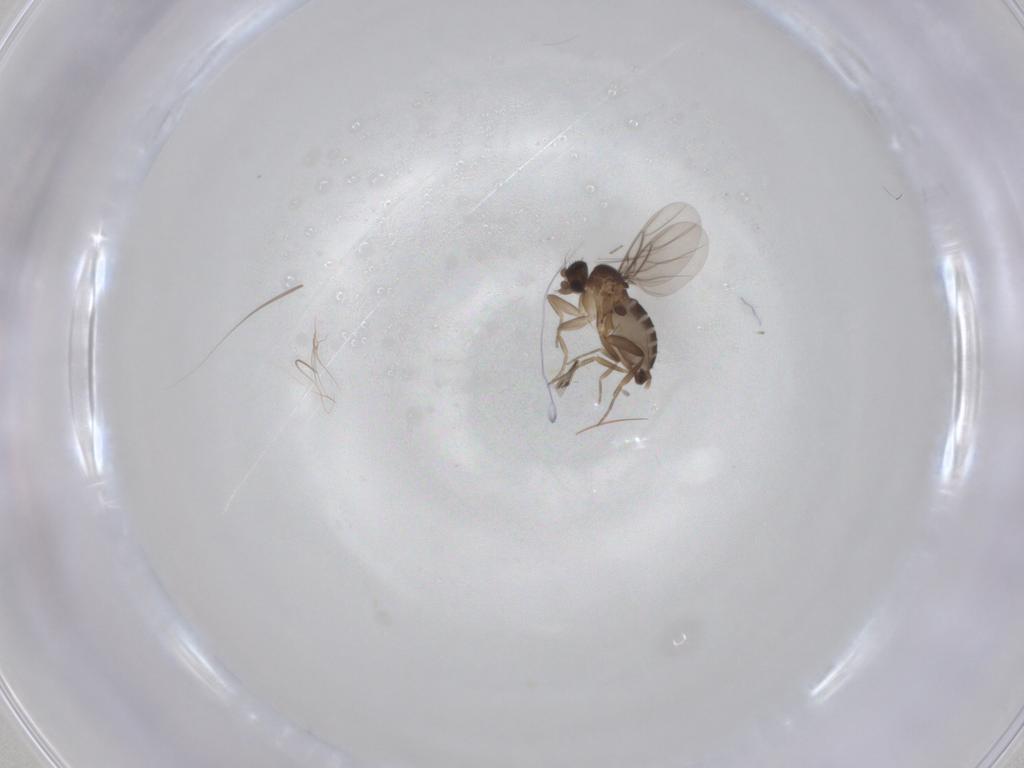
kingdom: Animalia
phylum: Arthropoda
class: Insecta
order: Diptera
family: Phoridae
